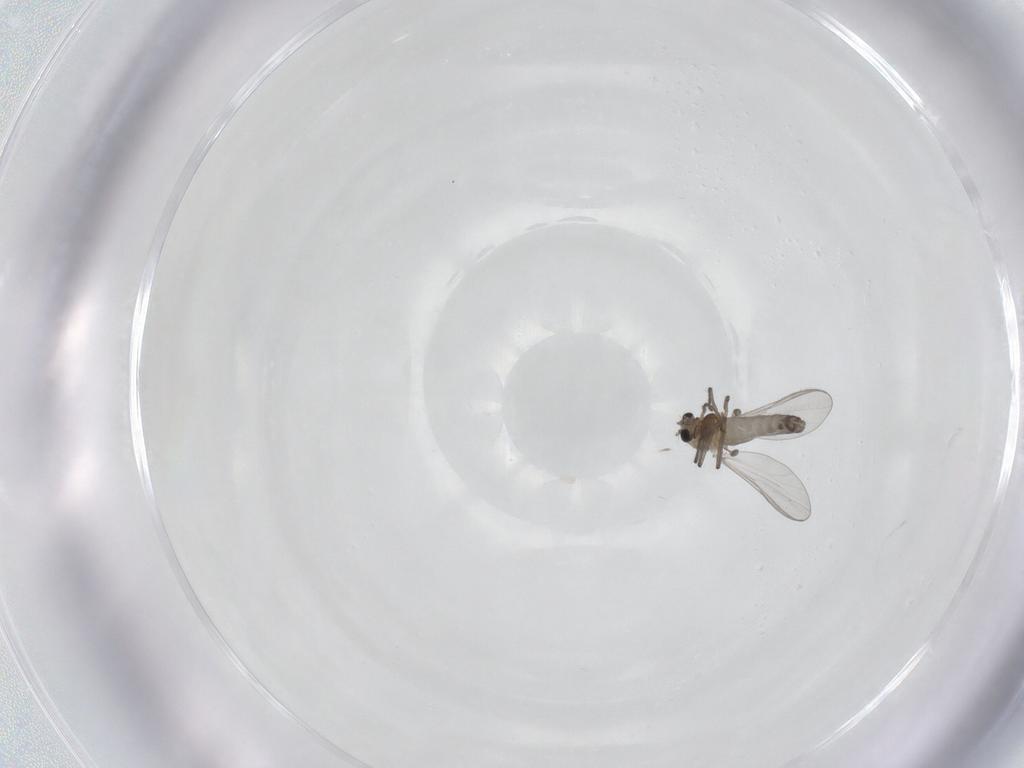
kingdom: Animalia
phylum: Arthropoda
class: Insecta
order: Diptera
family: Chironomidae
